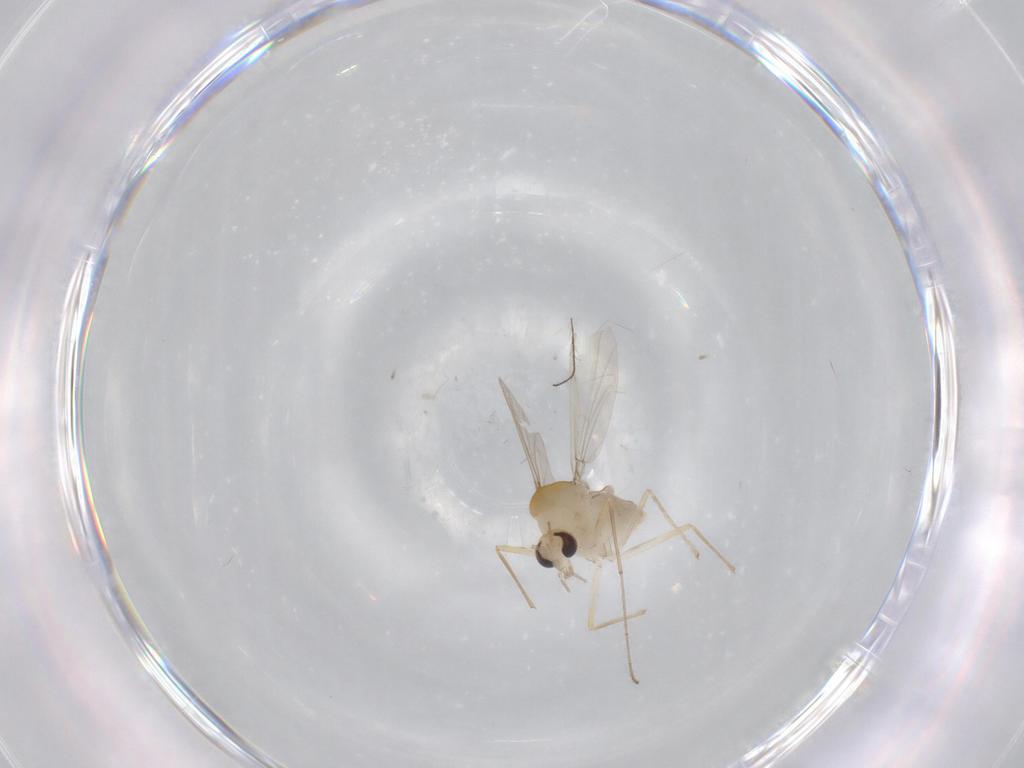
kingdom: Animalia
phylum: Arthropoda
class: Insecta
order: Diptera
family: Chironomidae
